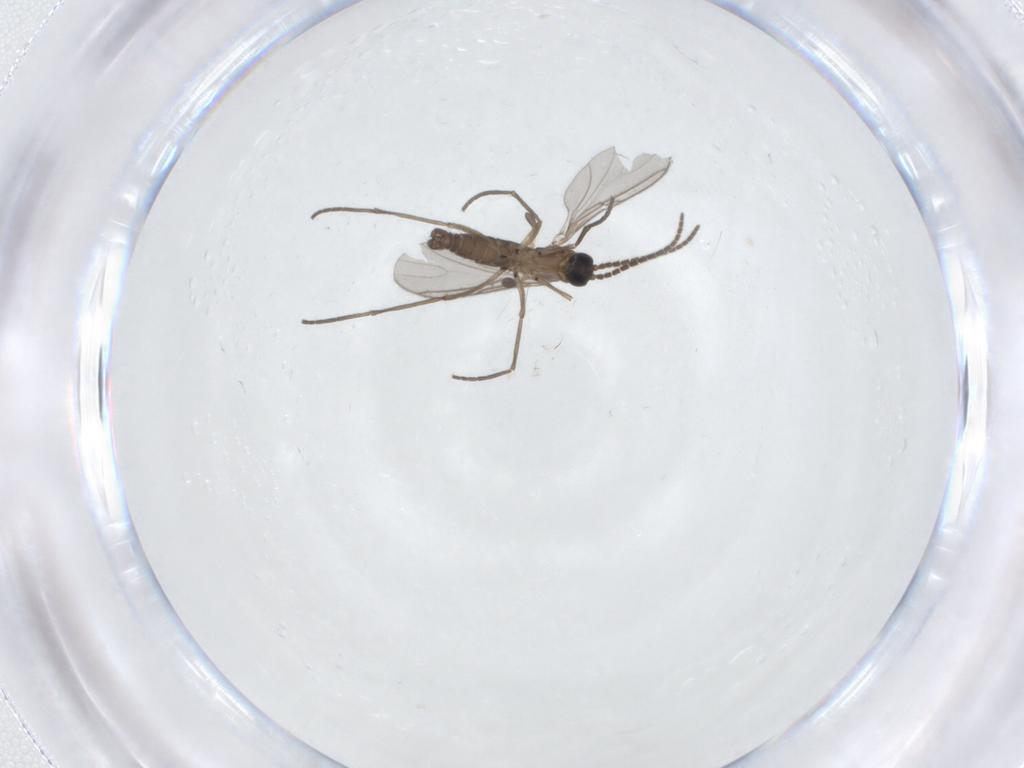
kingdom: Animalia
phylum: Arthropoda
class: Insecta
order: Diptera
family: Sciaridae
